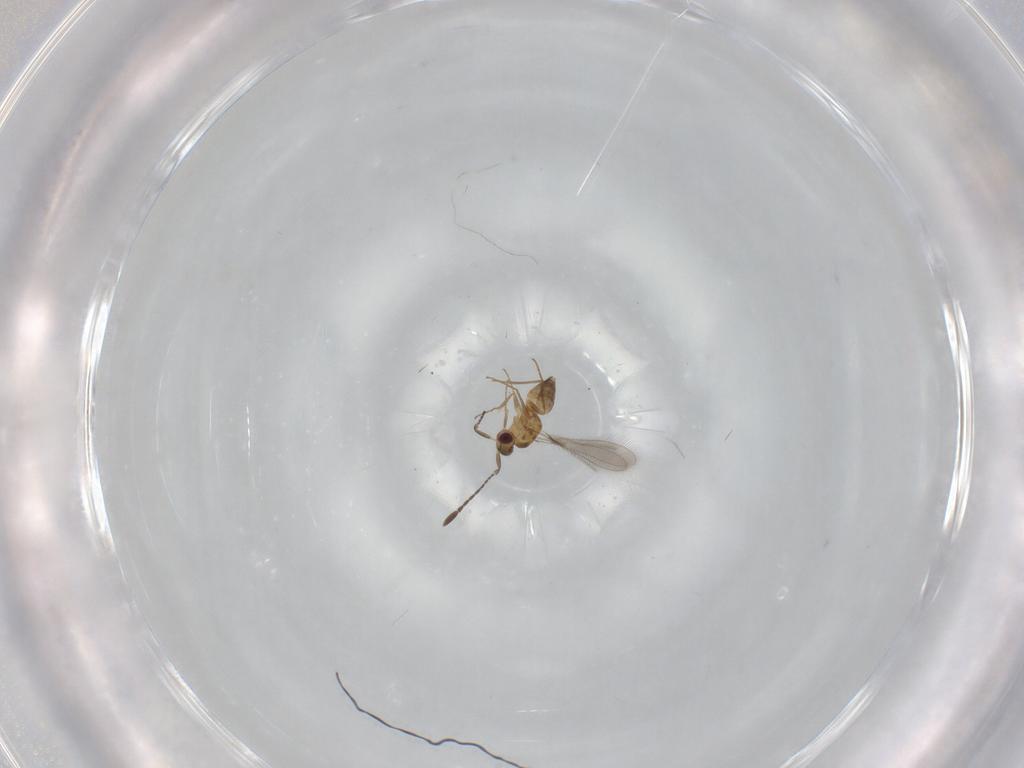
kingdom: Animalia
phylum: Arthropoda
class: Insecta
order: Hymenoptera
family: Mymaridae
